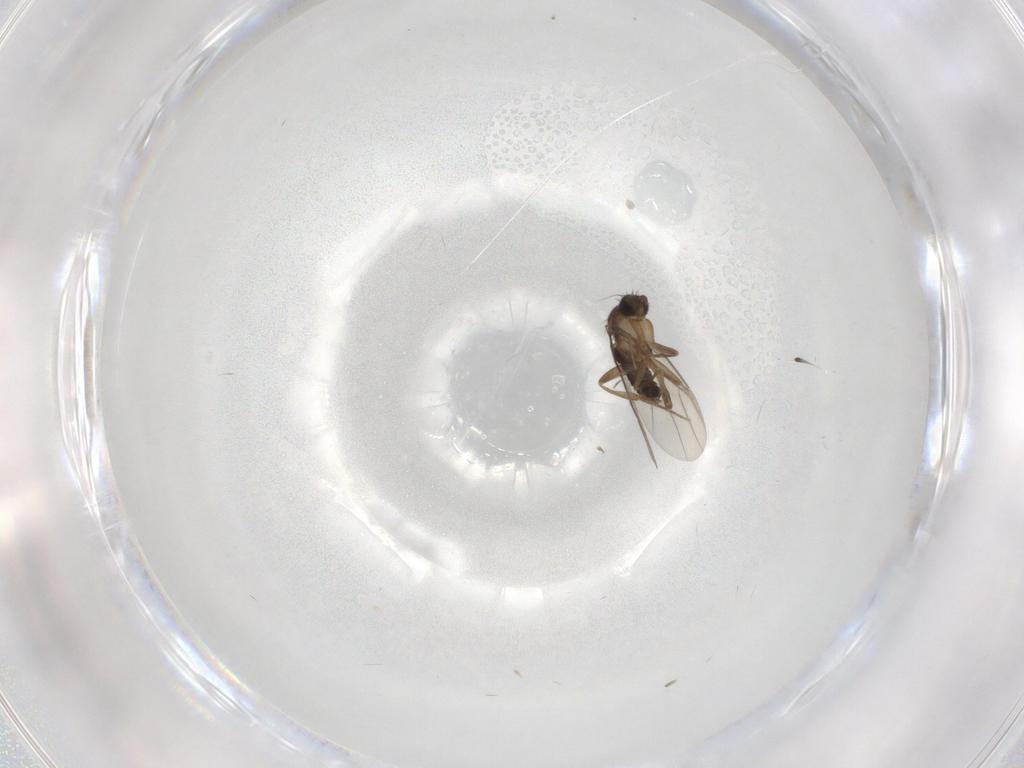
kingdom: Animalia
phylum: Arthropoda
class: Insecta
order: Diptera
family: Phoridae
